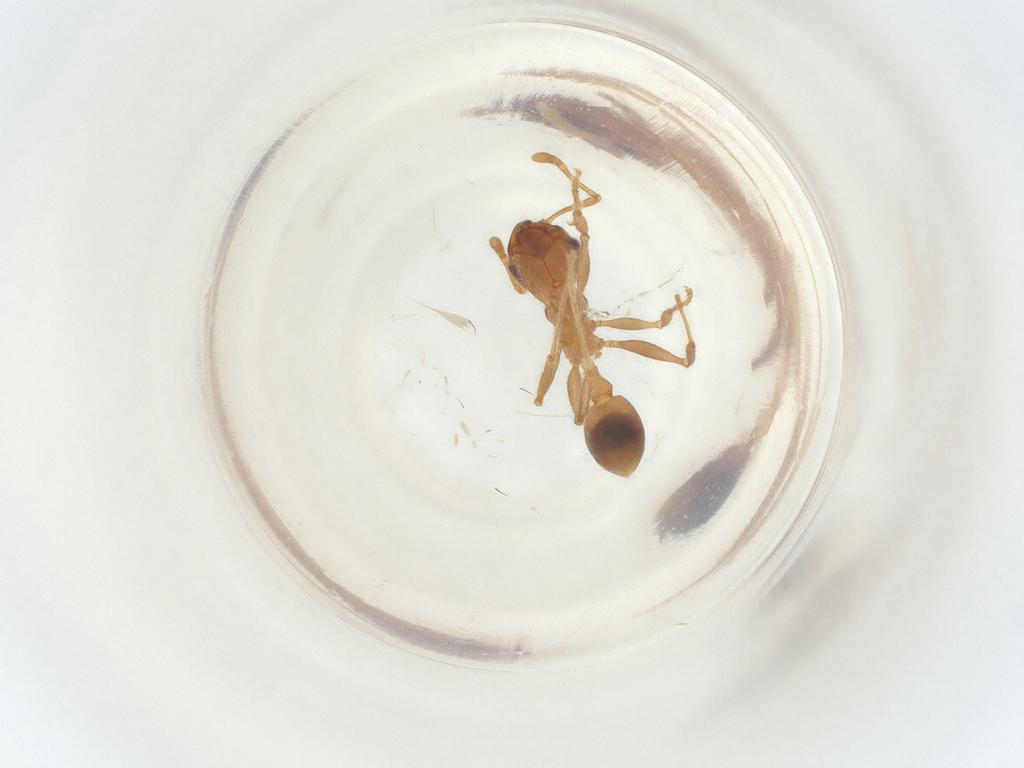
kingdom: Animalia
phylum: Arthropoda
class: Insecta
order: Hymenoptera
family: Formicidae
